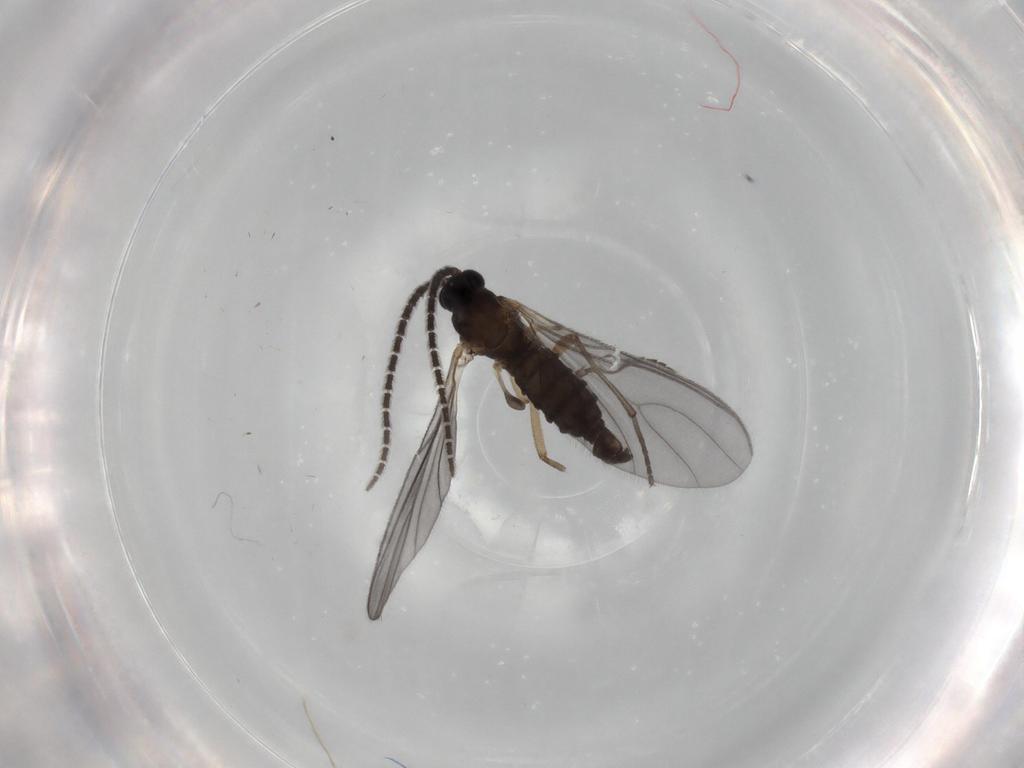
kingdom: Animalia
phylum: Arthropoda
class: Insecta
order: Diptera
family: Sciaridae
